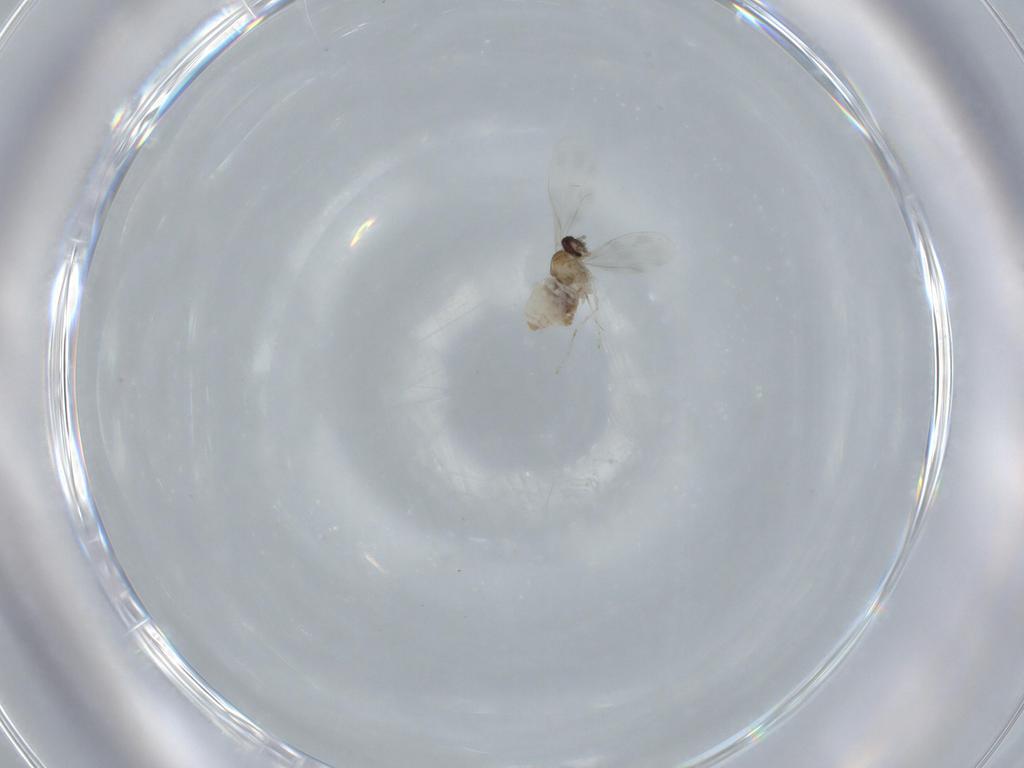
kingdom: Animalia
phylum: Arthropoda
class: Insecta
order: Diptera
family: Cecidomyiidae
